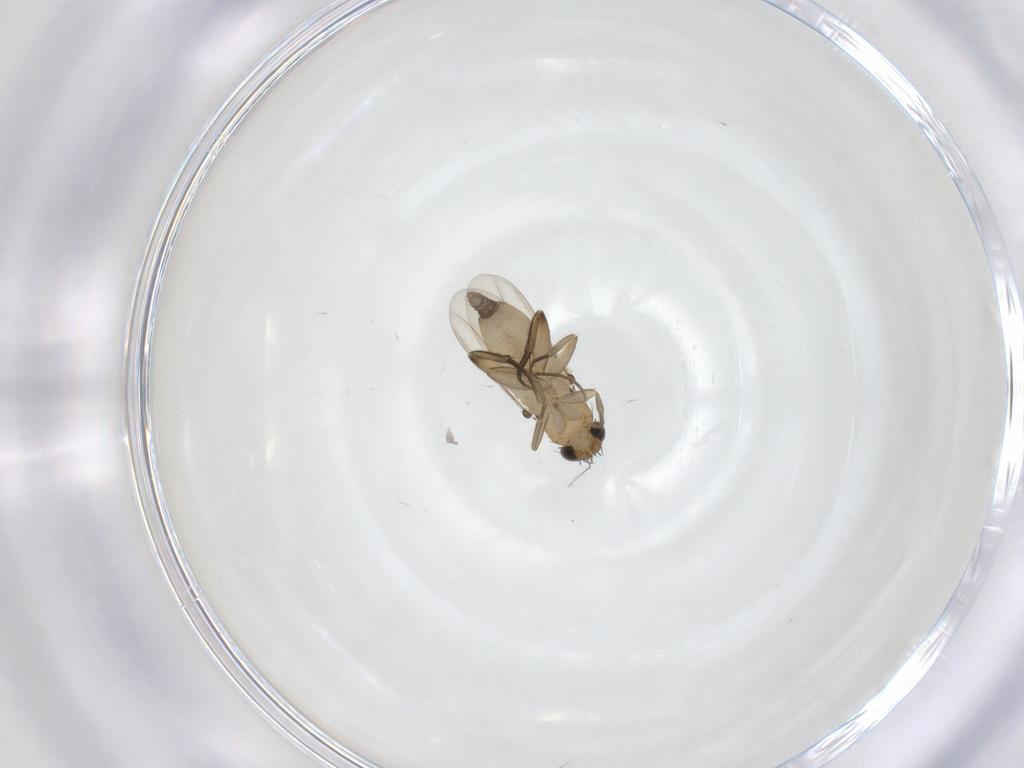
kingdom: Animalia
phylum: Arthropoda
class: Insecta
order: Diptera
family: Phoridae
